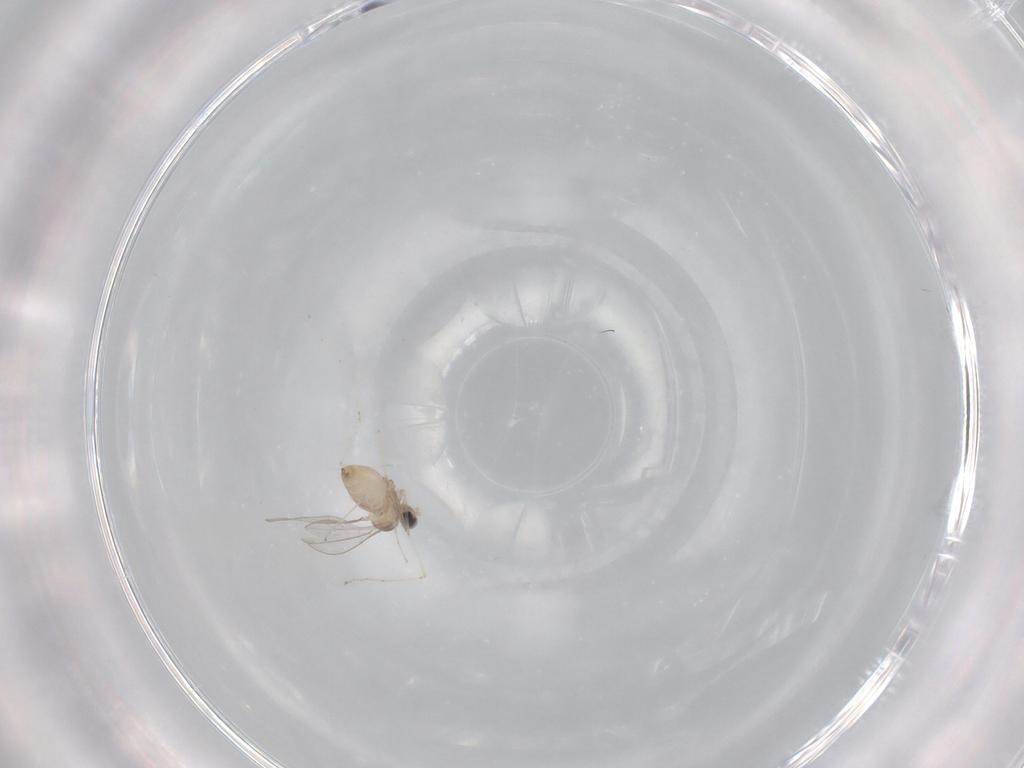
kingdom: Animalia
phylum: Arthropoda
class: Insecta
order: Diptera
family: Cecidomyiidae
